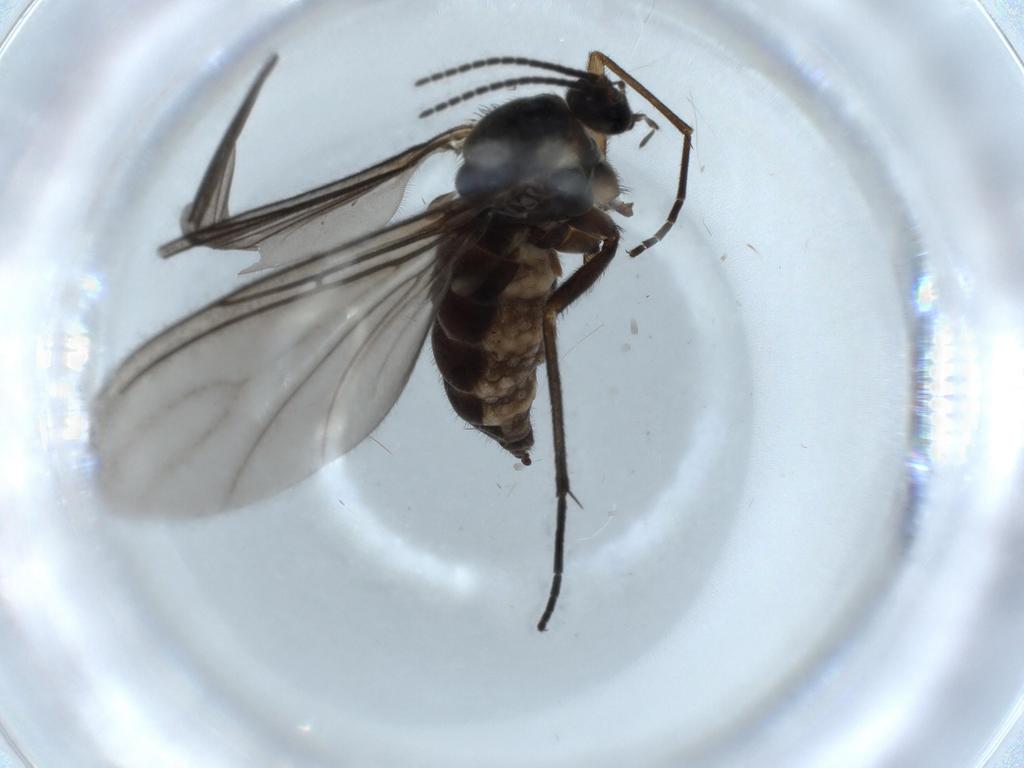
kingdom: Animalia
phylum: Arthropoda
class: Insecta
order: Diptera
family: Sciaridae
